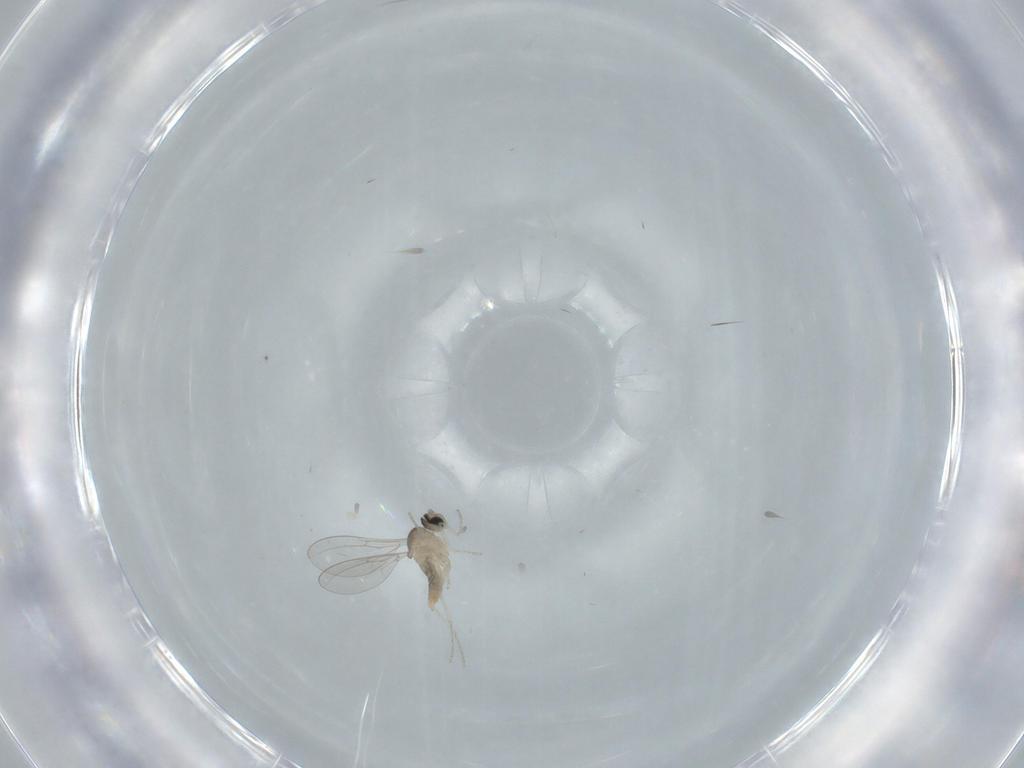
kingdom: Animalia
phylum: Arthropoda
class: Insecta
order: Diptera
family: Cecidomyiidae
